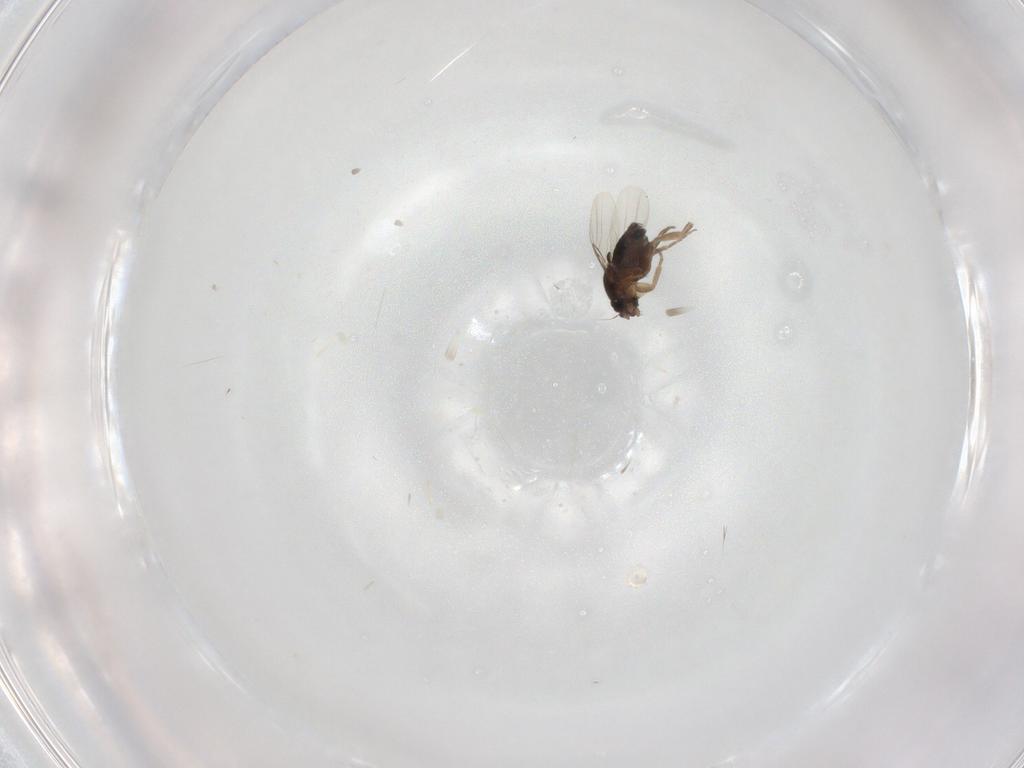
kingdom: Animalia
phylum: Arthropoda
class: Insecta
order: Diptera
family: Phoridae
